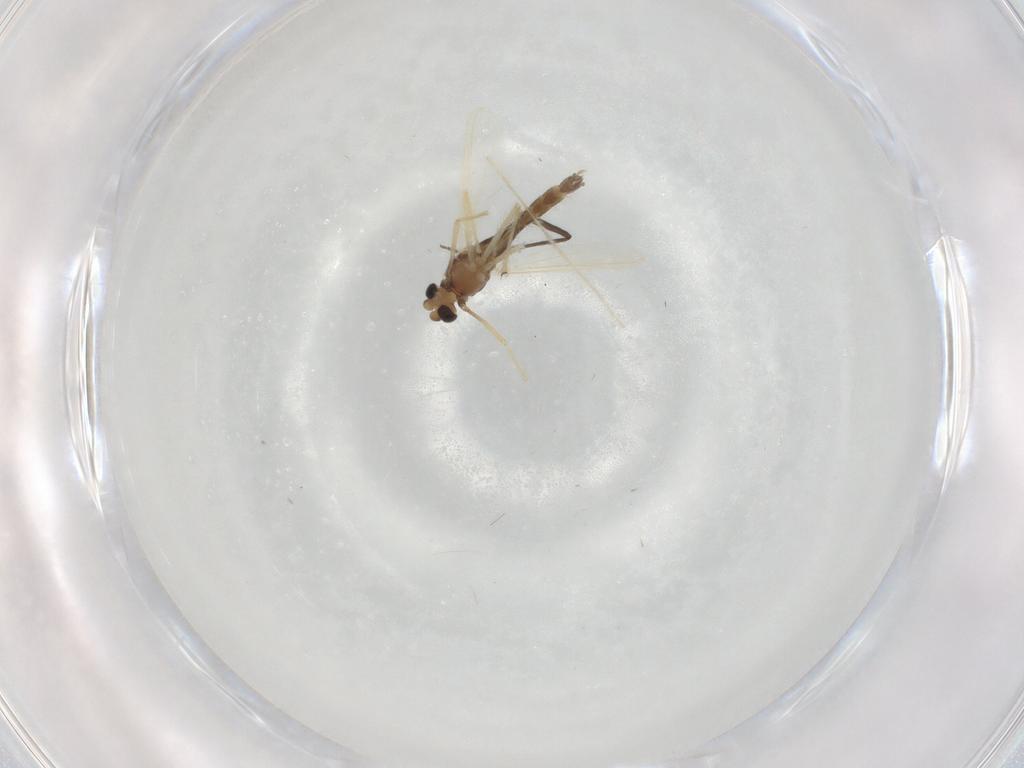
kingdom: Animalia
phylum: Arthropoda
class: Insecta
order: Diptera
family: Chironomidae
